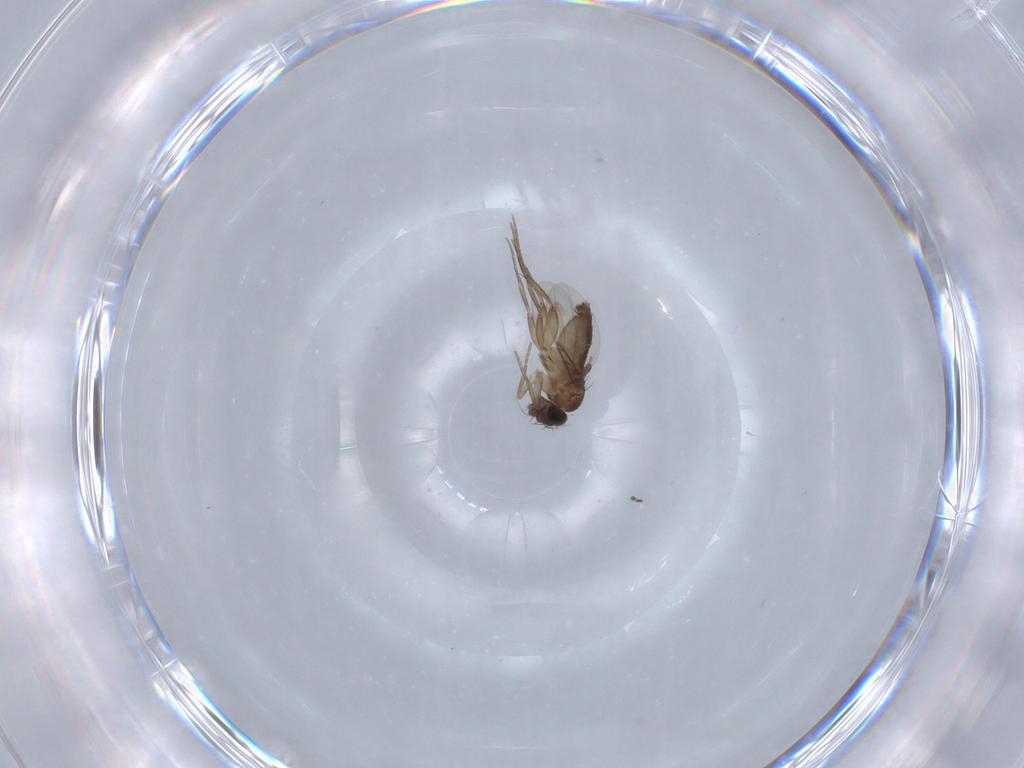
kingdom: Animalia
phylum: Arthropoda
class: Insecta
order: Diptera
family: Phoridae
